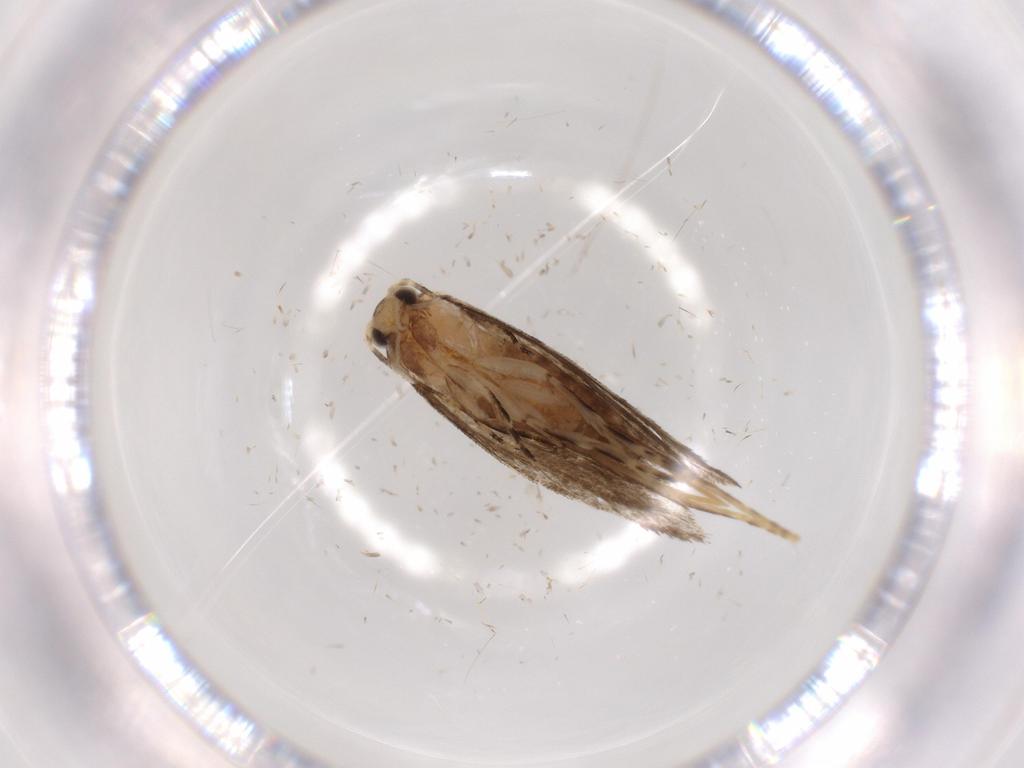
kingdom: Animalia
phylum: Arthropoda
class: Insecta
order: Lepidoptera
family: Tineidae
